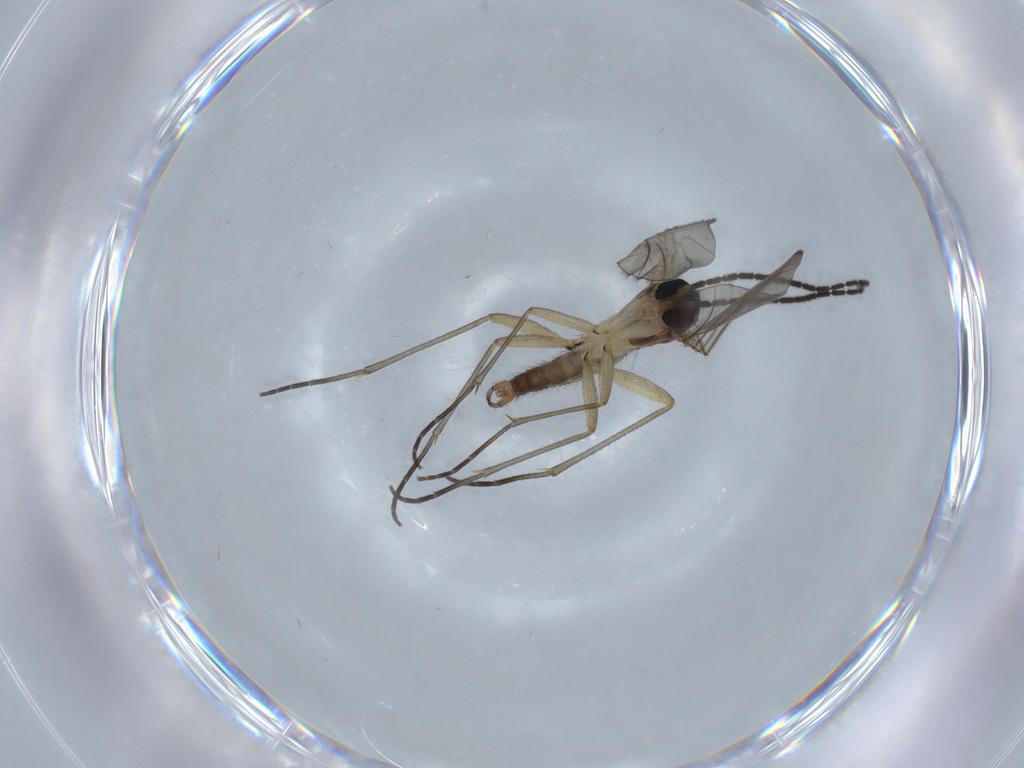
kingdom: Animalia
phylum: Arthropoda
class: Insecta
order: Diptera
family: Sciaridae
